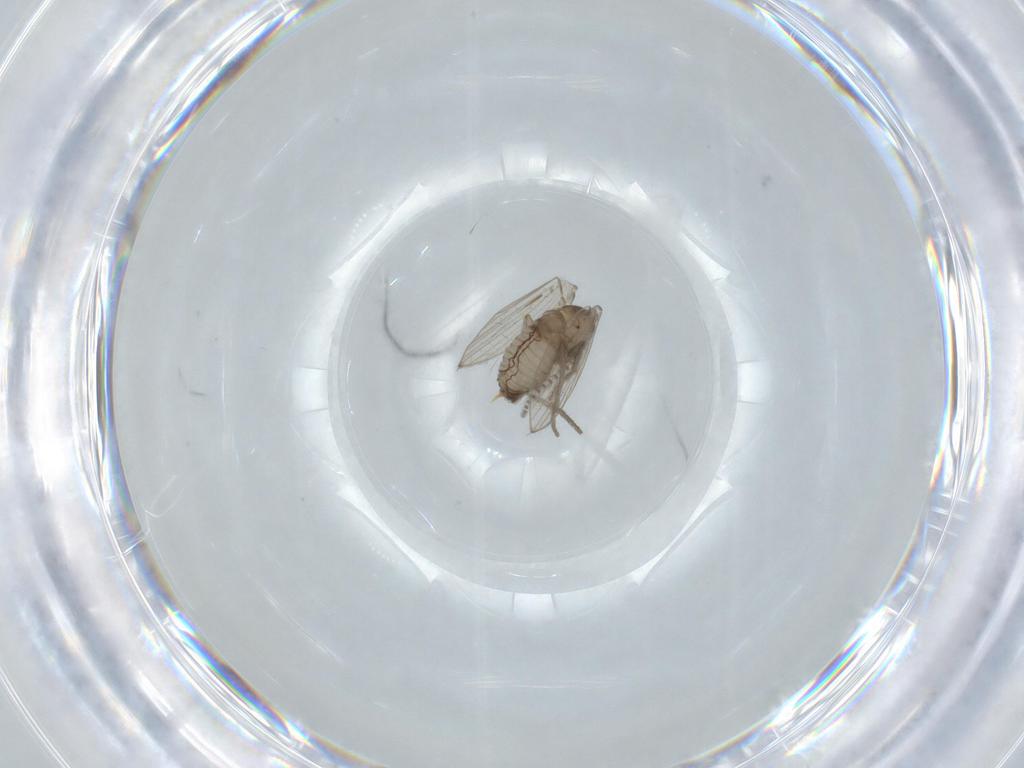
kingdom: Animalia
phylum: Arthropoda
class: Insecta
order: Diptera
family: Psychodidae
